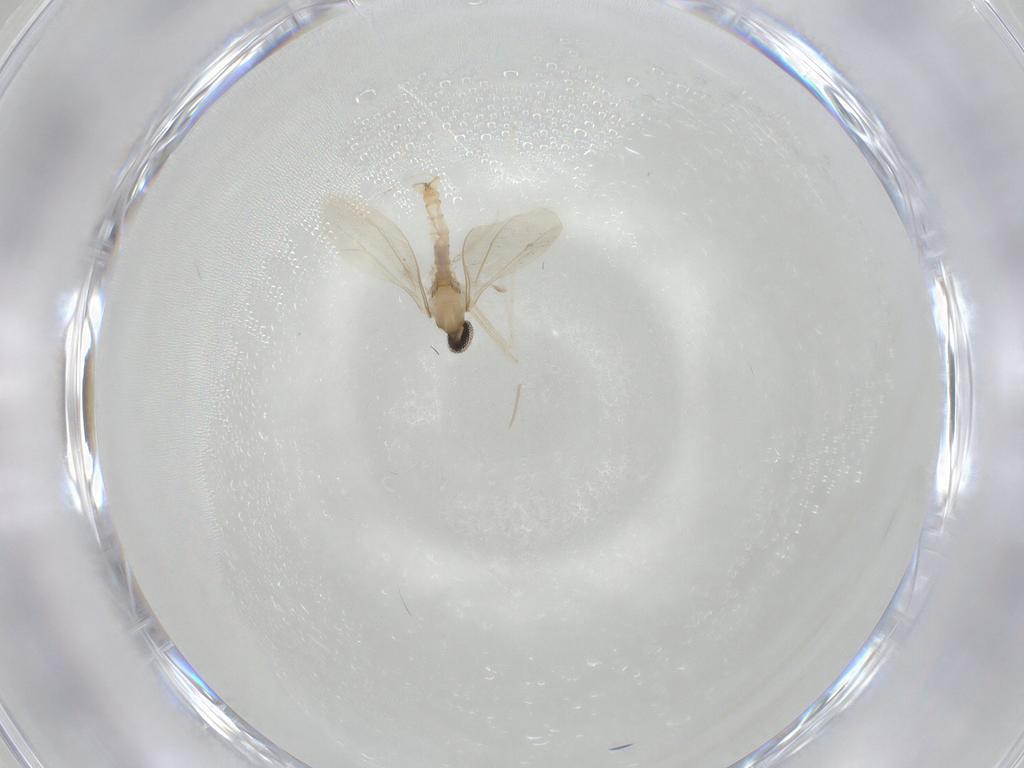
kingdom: Animalia
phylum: Arthropoda
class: Insecta
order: Diptera
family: Cecidomyiidae
